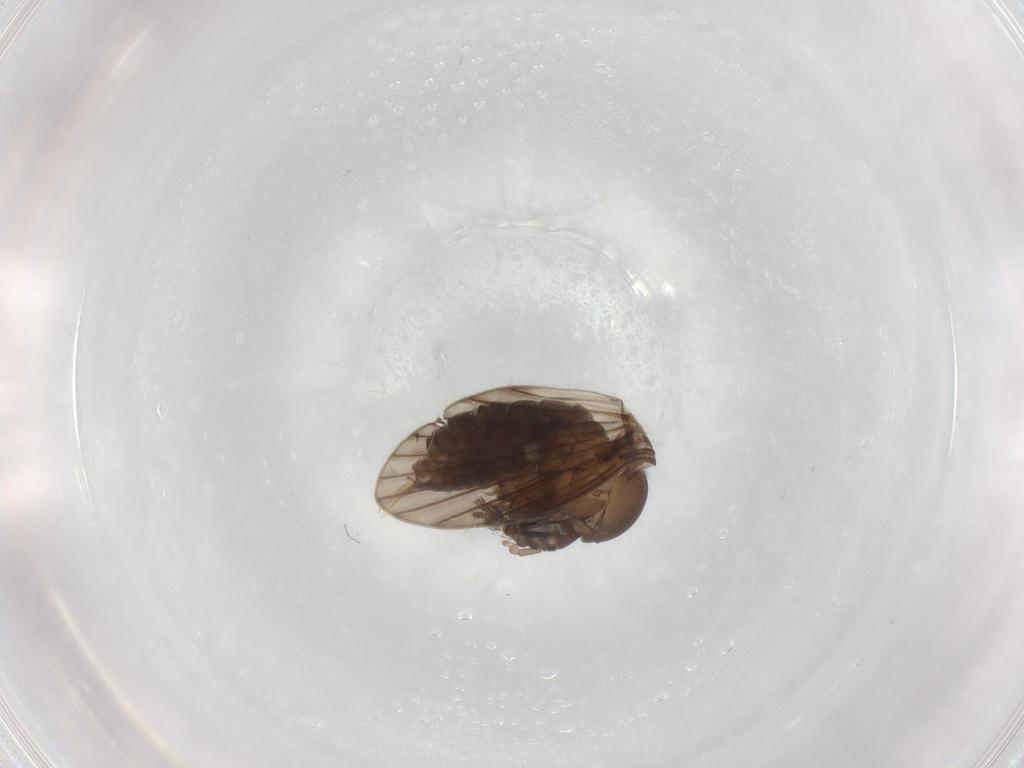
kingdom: Animalia
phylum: Arthropoda
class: Insecta
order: Diptera
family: Psychodidae
